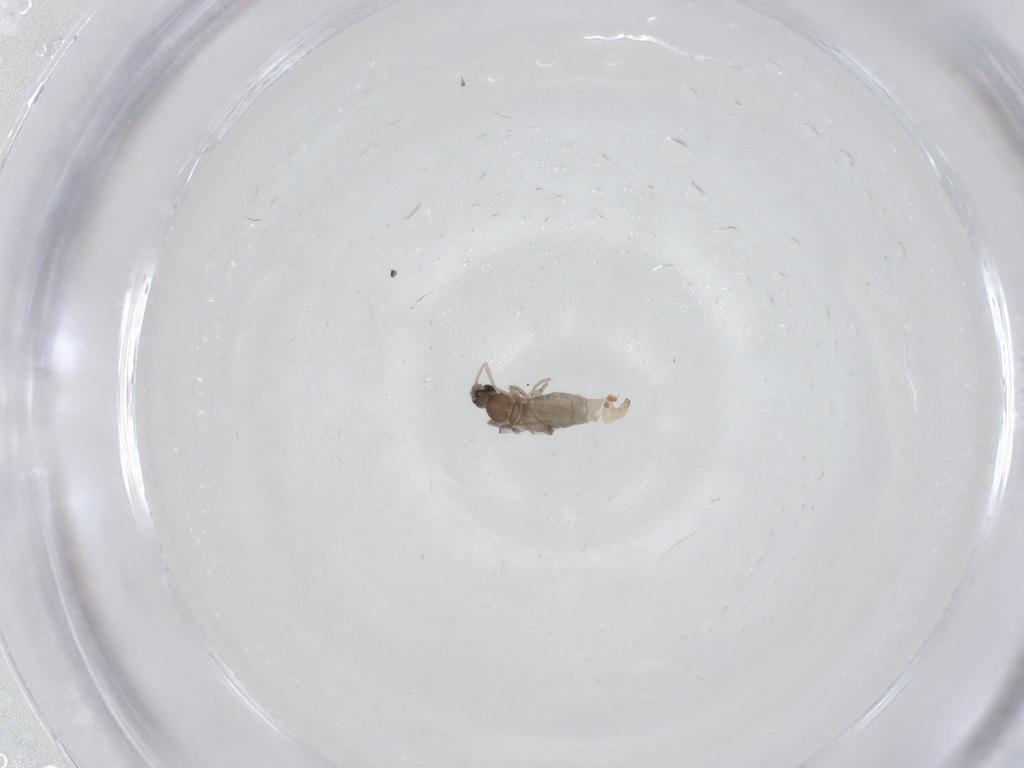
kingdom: Animalia
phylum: Arthropoda
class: Insecta
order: Diptera
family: Cecidomyiidae
